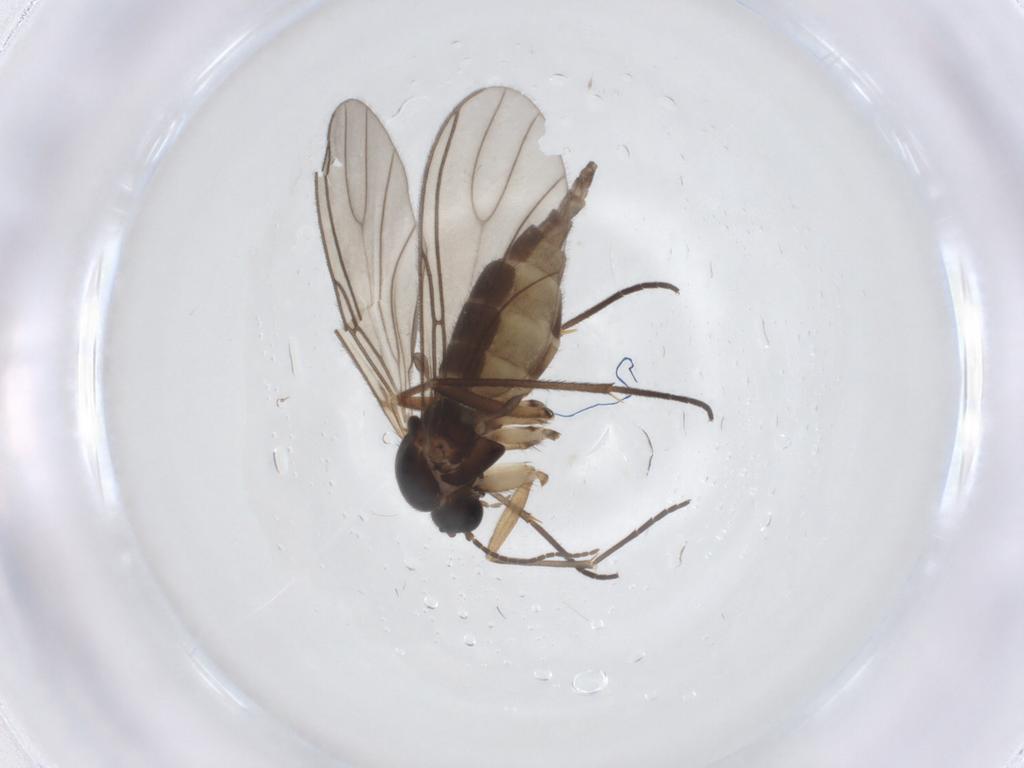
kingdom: Animalia
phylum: Arthropoda
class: Insecta
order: Diptera
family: Sciaridae
